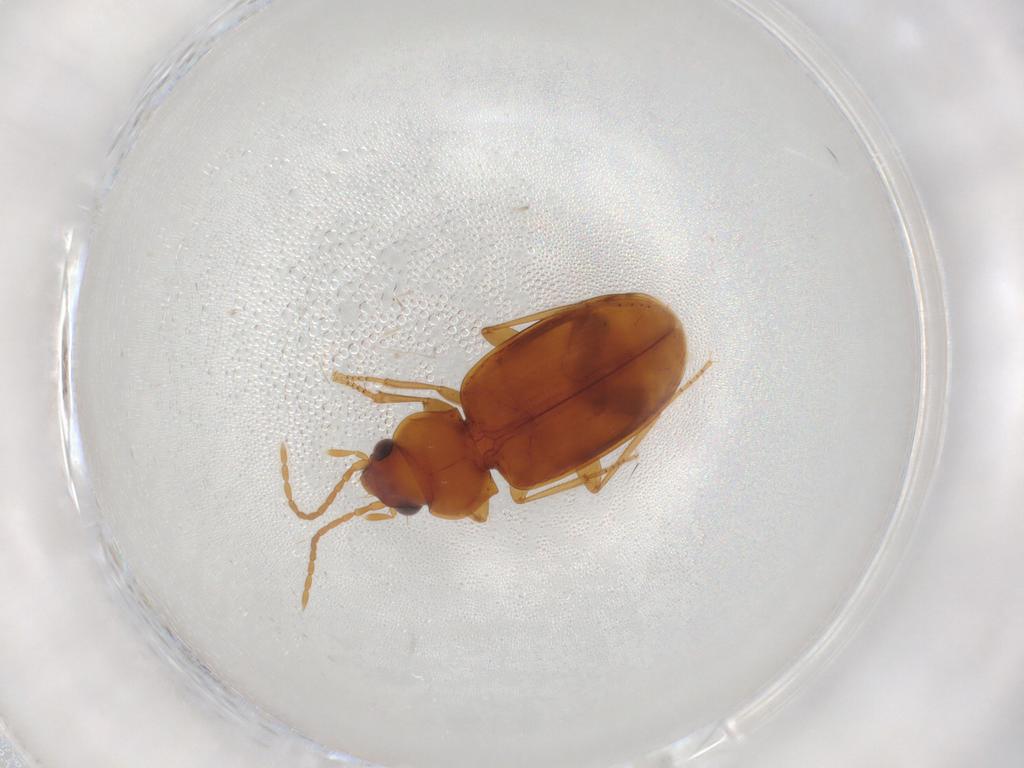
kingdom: Animalia
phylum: Arthropoda
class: Insecta
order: Coleoptera
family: Carabidae
